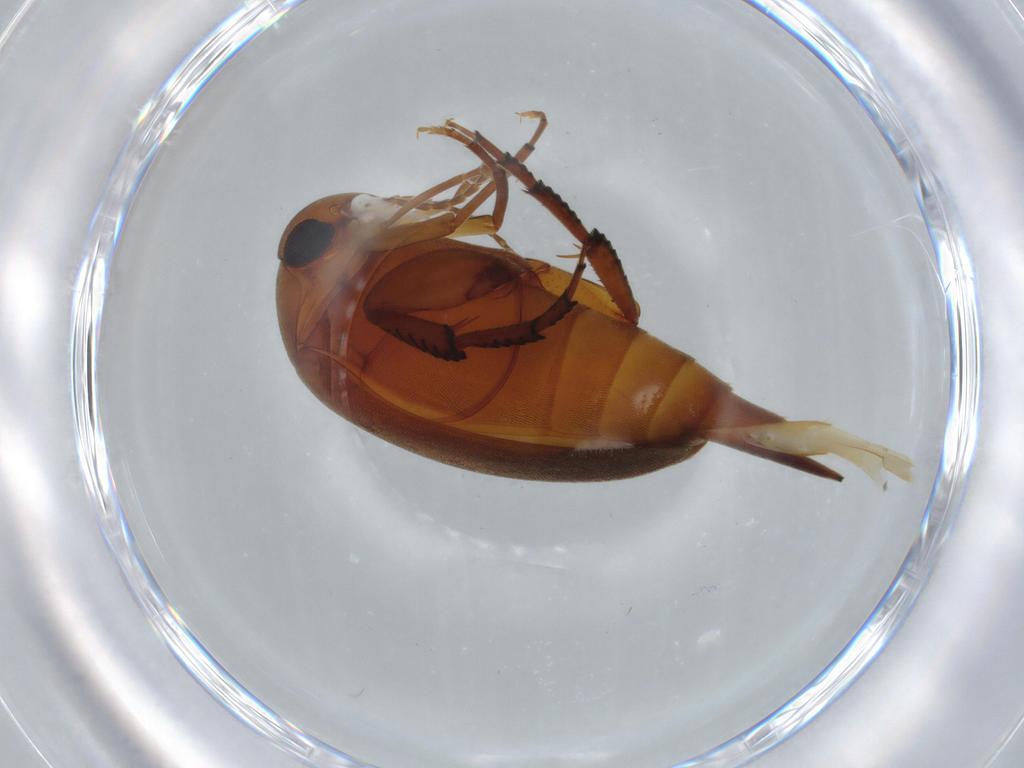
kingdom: Animalia
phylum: Arthropoda
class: Insecta
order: Coleoptera
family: Mordellidae
